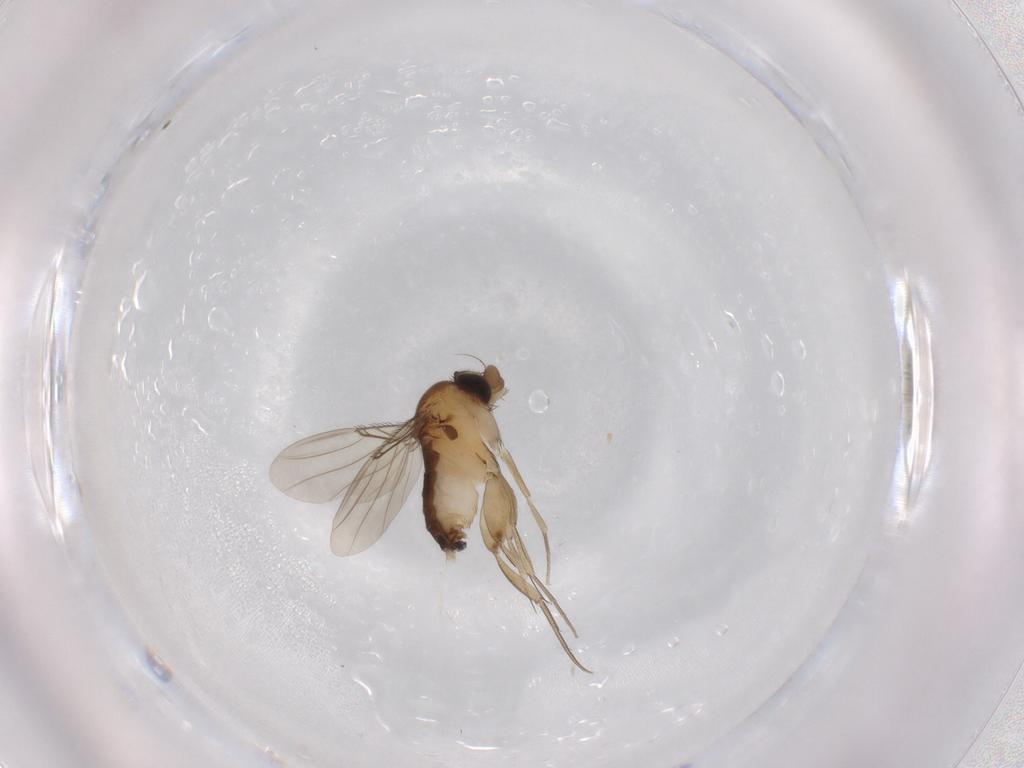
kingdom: Animalia
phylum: Arthropoda
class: Insecta
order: Diptera
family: Phoridae
